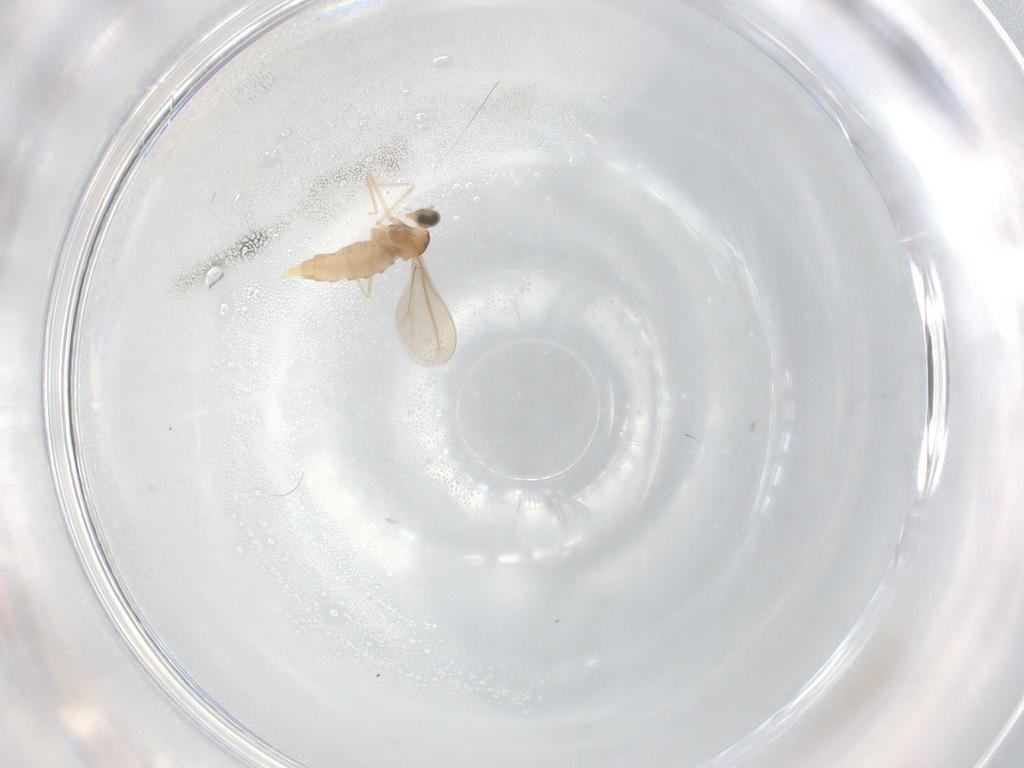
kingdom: Animalia
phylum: Arthropoda
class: Insecta
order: Diptera
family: Cecidomyiidae
